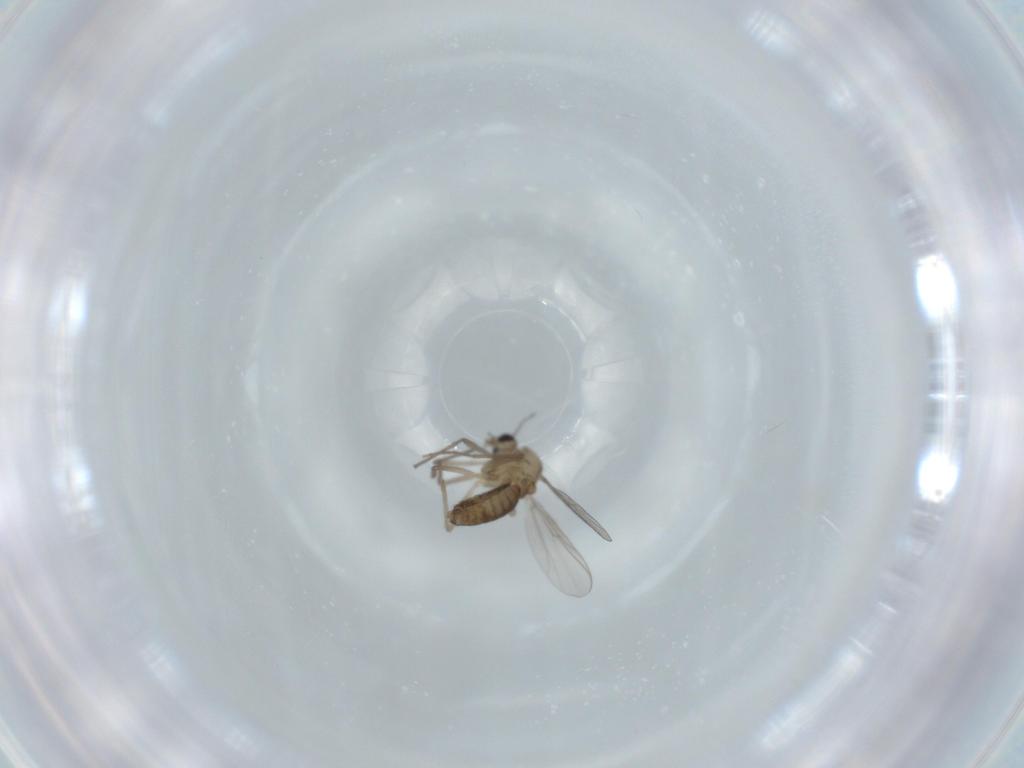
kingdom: Animalia
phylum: Arthropoda
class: Insecta
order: Diptera
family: Chironomidae
